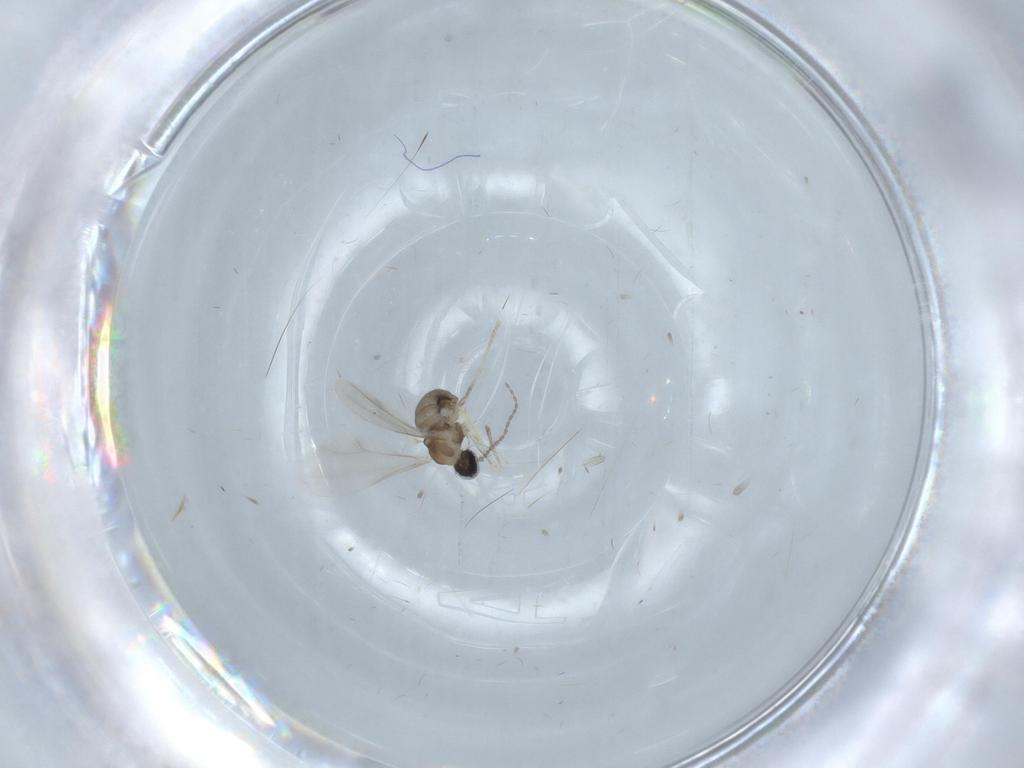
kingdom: Animalia
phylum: Arthropoda
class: Insecta
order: Diptera
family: Cecidomyiidae
